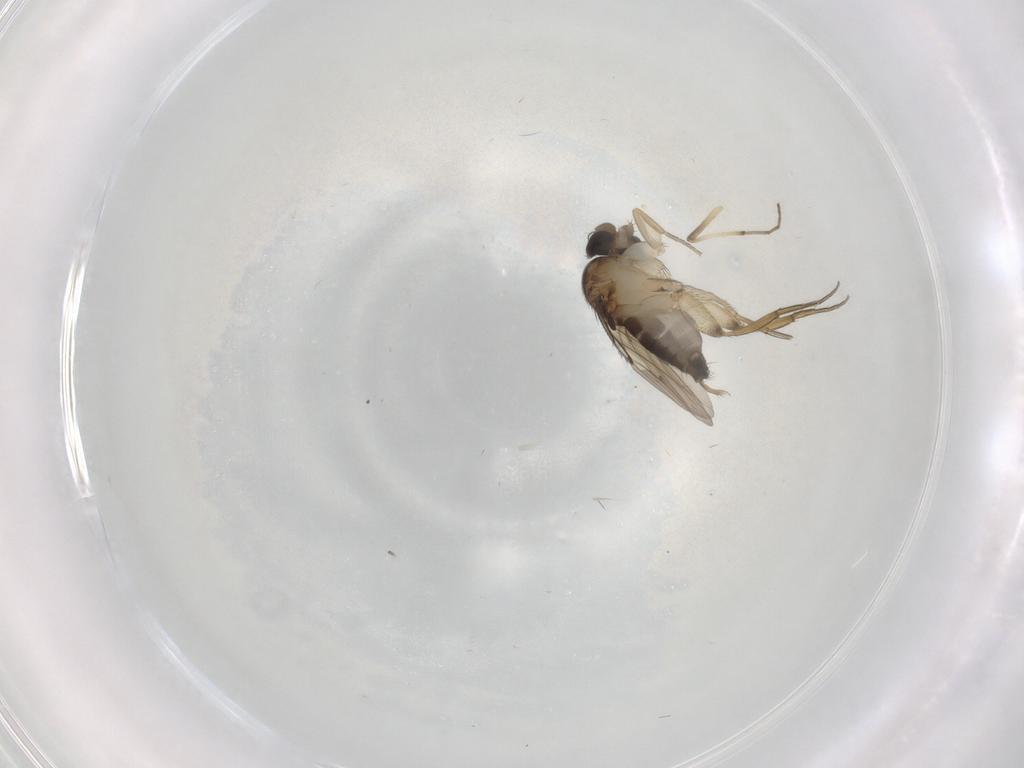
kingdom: Animalia
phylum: Arthropoda
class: Insecta
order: Diptera
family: Phoridae
